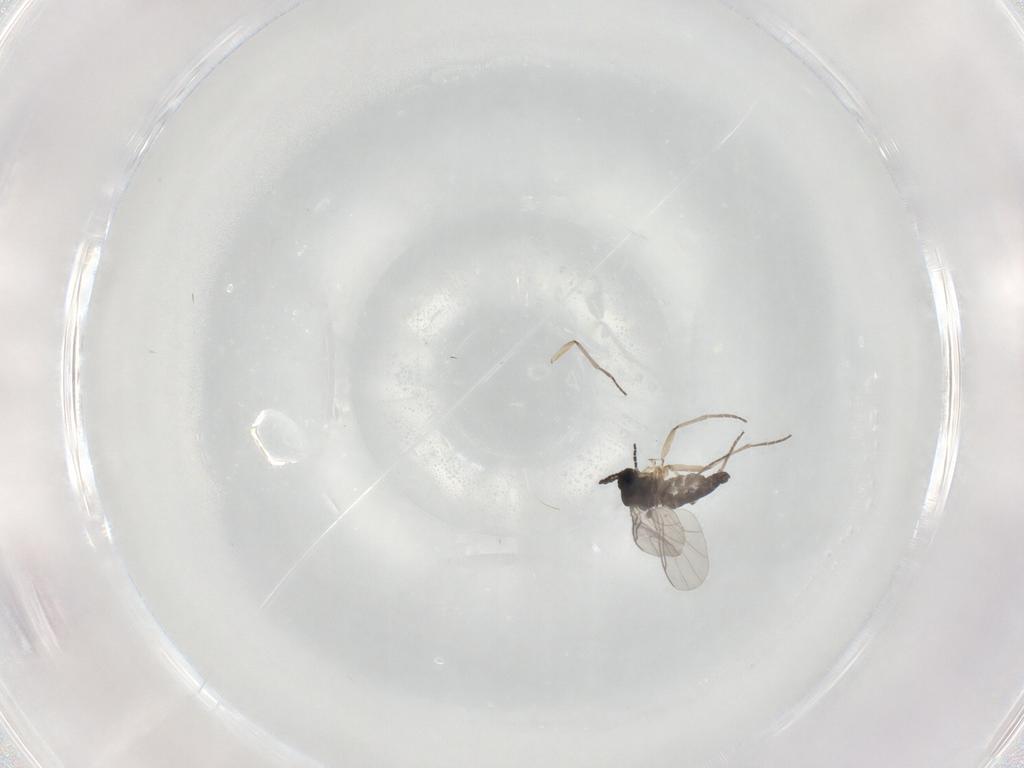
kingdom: Animalia
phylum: Arthropoda
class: Insecta
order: Diptera
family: Sciaridae
